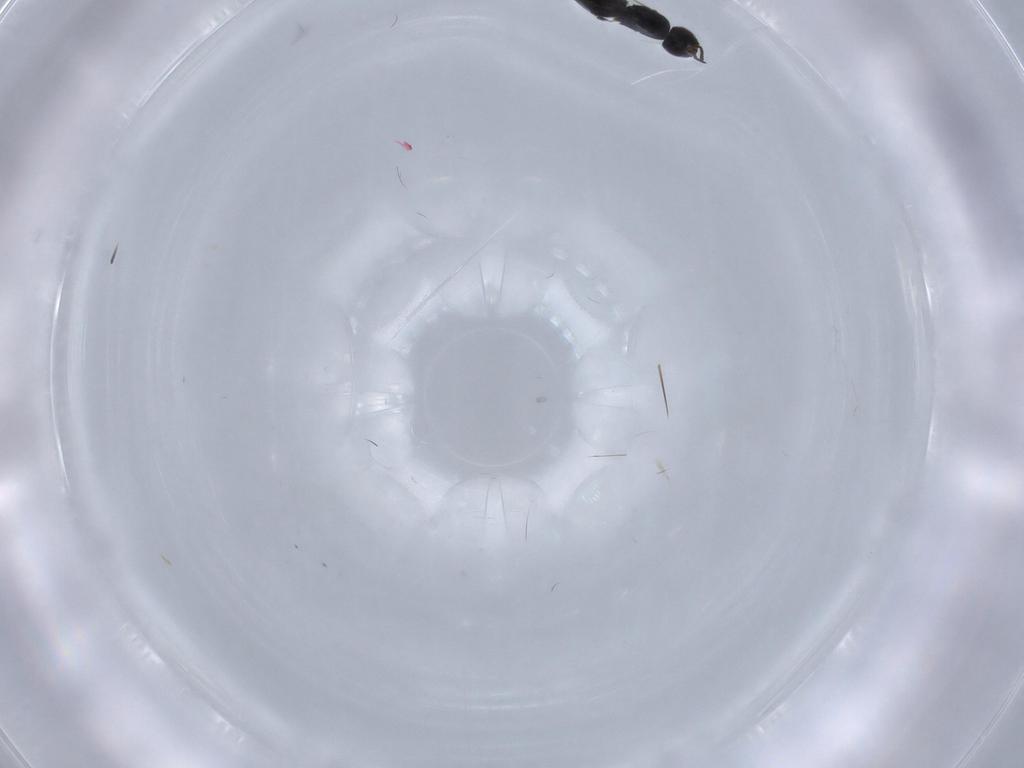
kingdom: Animalia
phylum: Arthropoda
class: Insecta
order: Hymenoptera
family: Ceraphronidae
